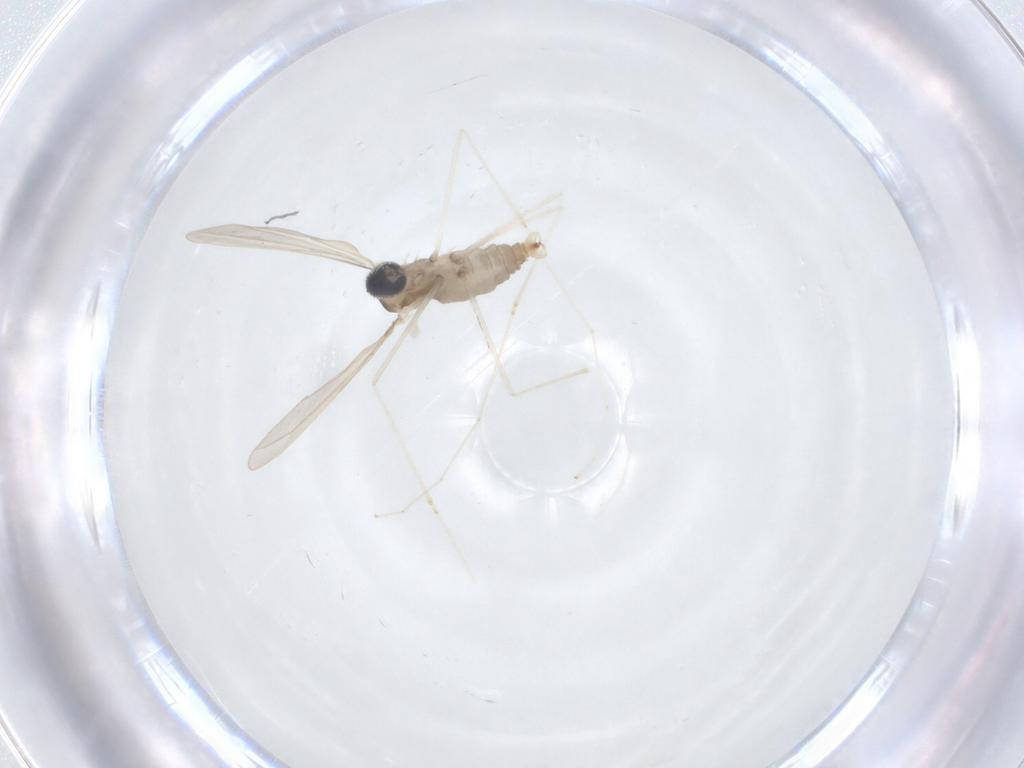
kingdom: Animalia
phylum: Arthropoda
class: Insecta
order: Diptera
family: Cecidomyiidae
